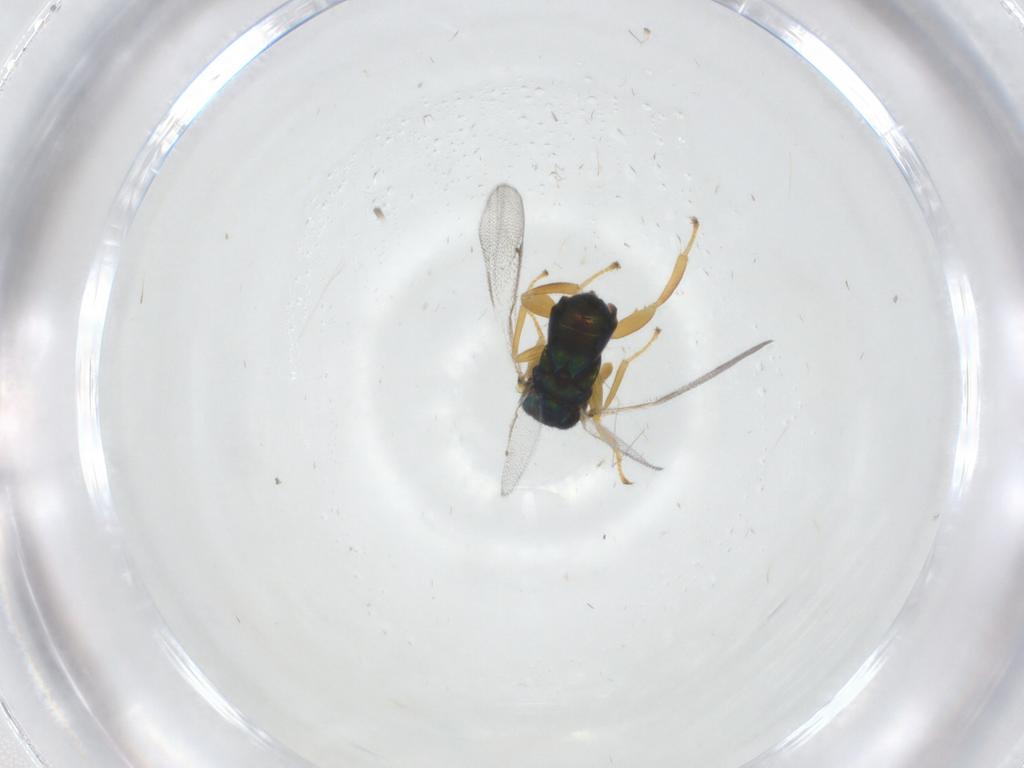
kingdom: Animalia
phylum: Arthropoda
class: Insecta
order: Hymenoptera
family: Torymidae
